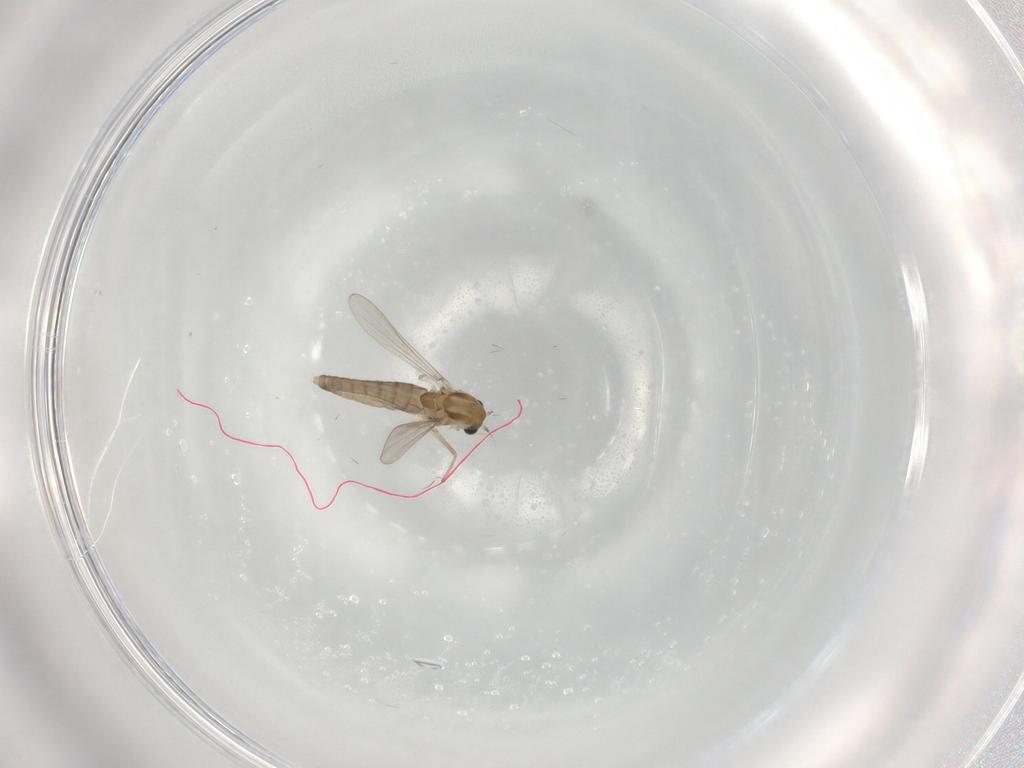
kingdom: Animalia
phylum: Arthropoda
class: Insecta
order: Diptera
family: Chironomidae
